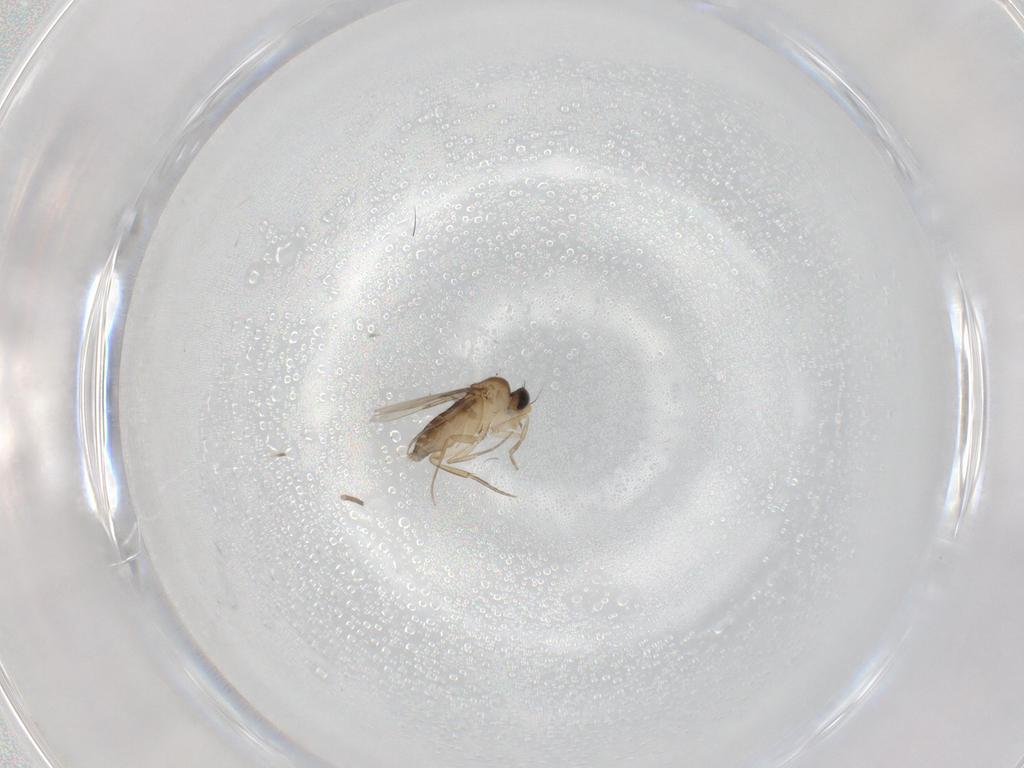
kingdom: Animalia
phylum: Arthropoda
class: Insecta
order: Diptera
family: Phoridae
